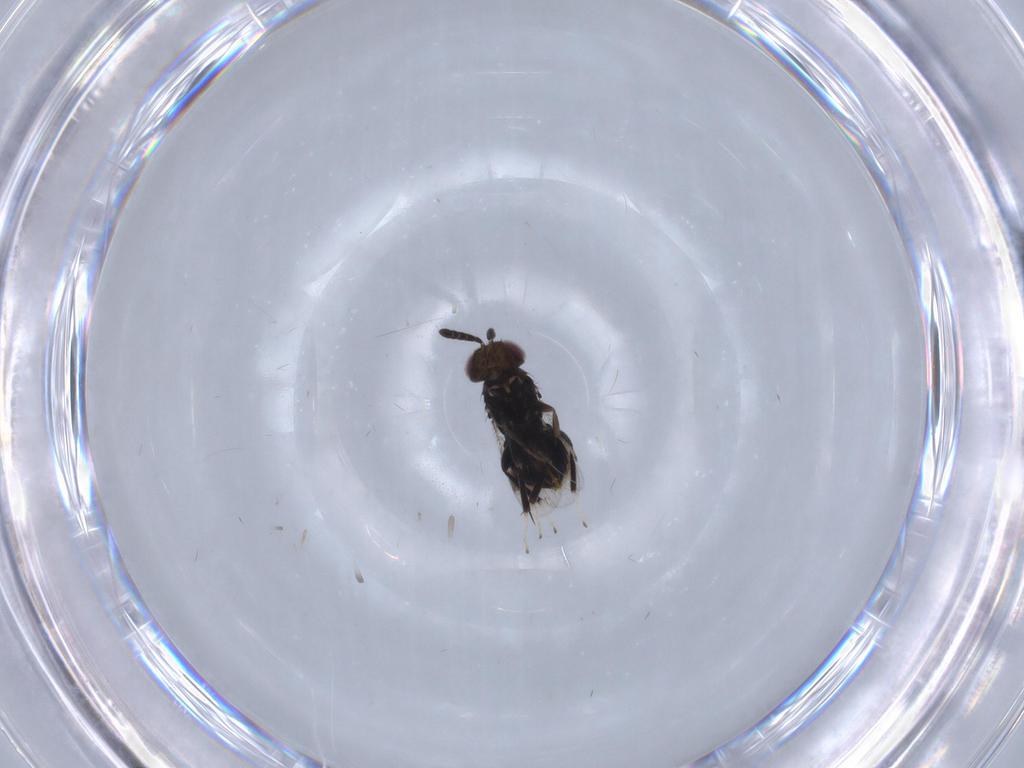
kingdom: Animalia
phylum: Arthropoda
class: Insecta
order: Hymenoptera
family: Aphelinidae
